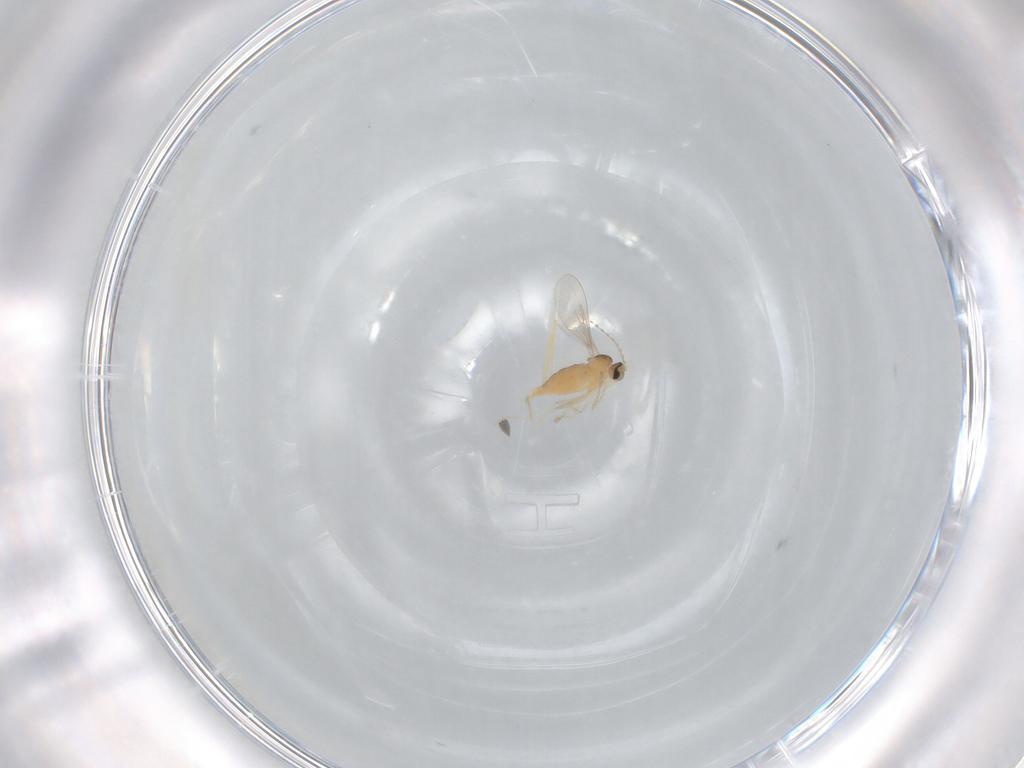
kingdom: Animalia
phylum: Arthropoda
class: Insecta
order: Diptera
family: Cecidomyiidae
